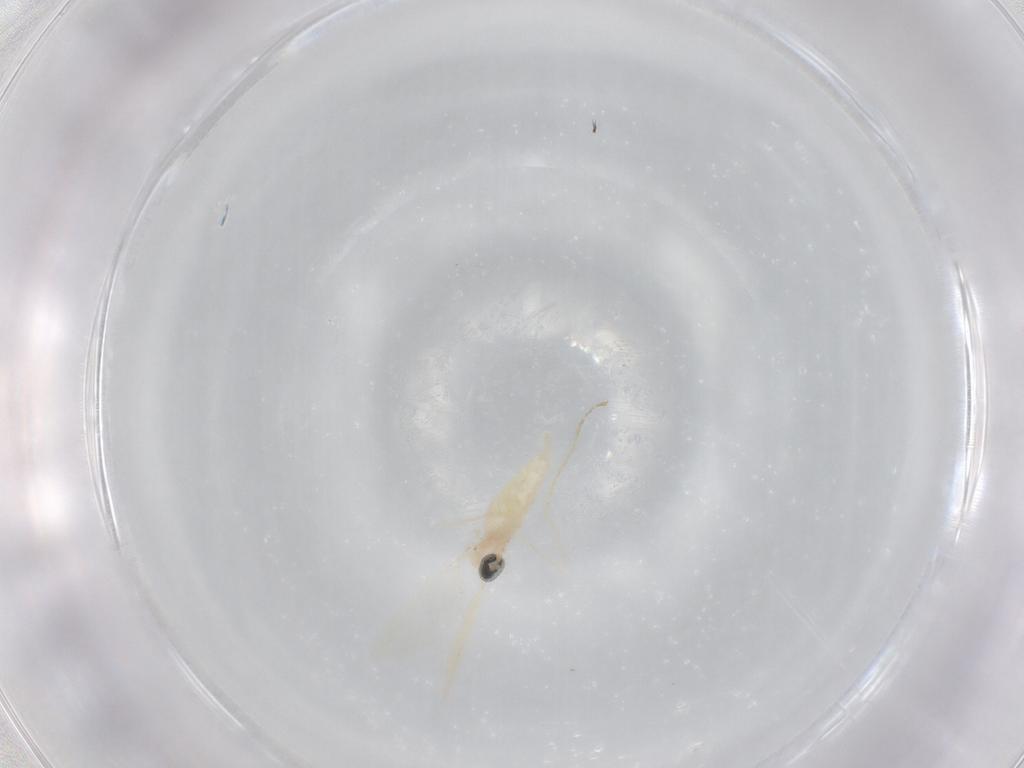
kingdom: Animalia
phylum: Arthropoda
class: Insecta
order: Diptera
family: Cecidomyiidae
